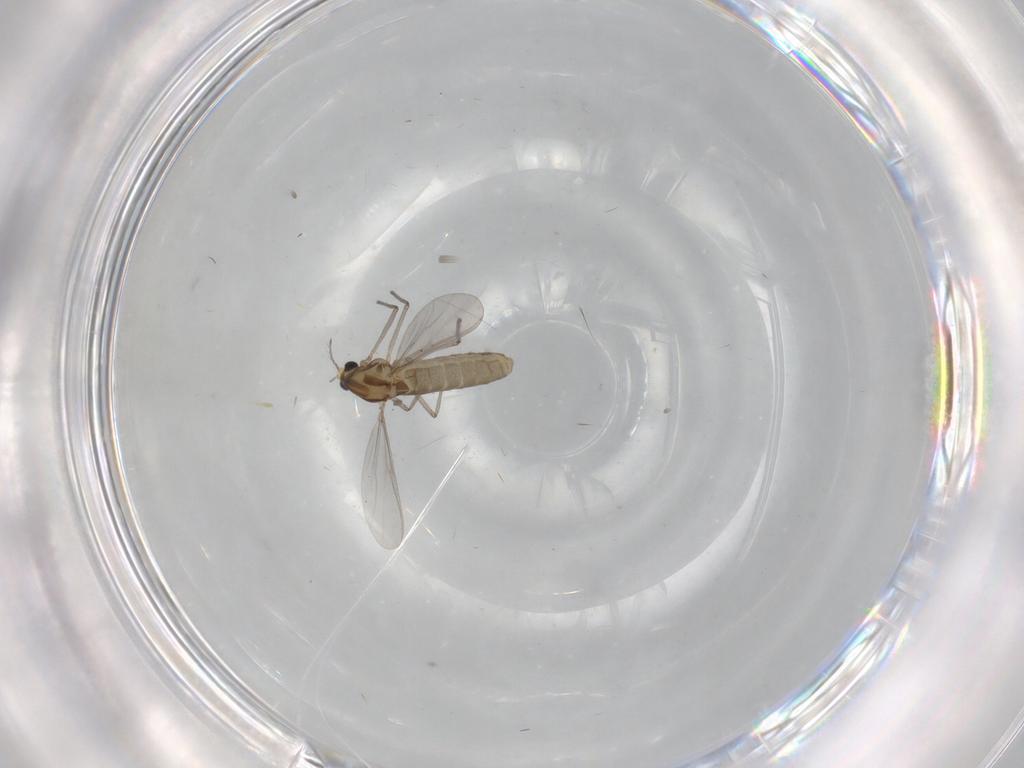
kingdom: Animalia
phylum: Arthropoda
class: Insecta
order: Diptera
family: Chironomidae
